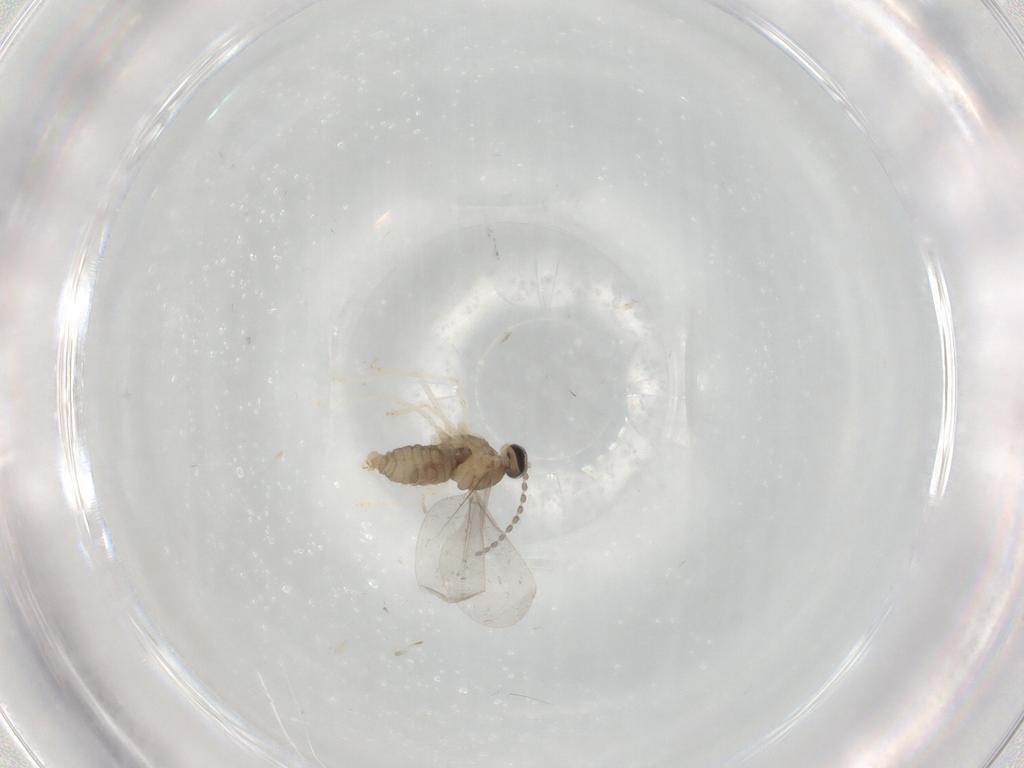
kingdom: Animalia
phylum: Arthropoda
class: Insecta
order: Diptera
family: Cecidomyiidae
